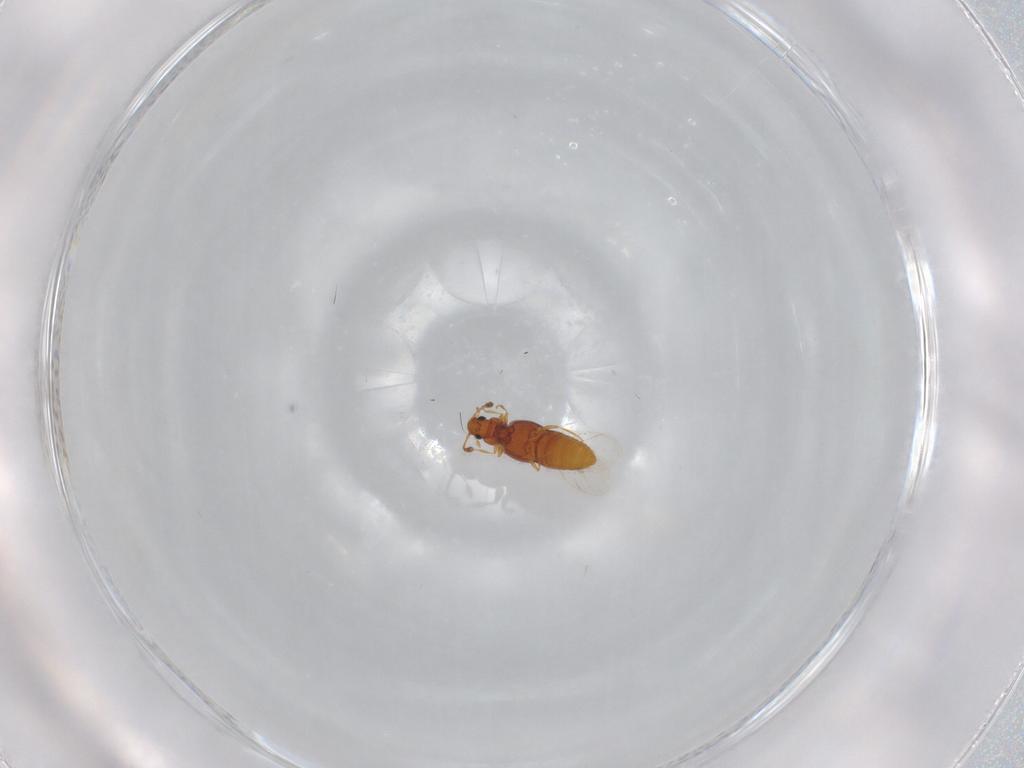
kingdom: Animalia
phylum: Arthropoda
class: Insecta
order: Coleoptera
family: Staphylinidae
